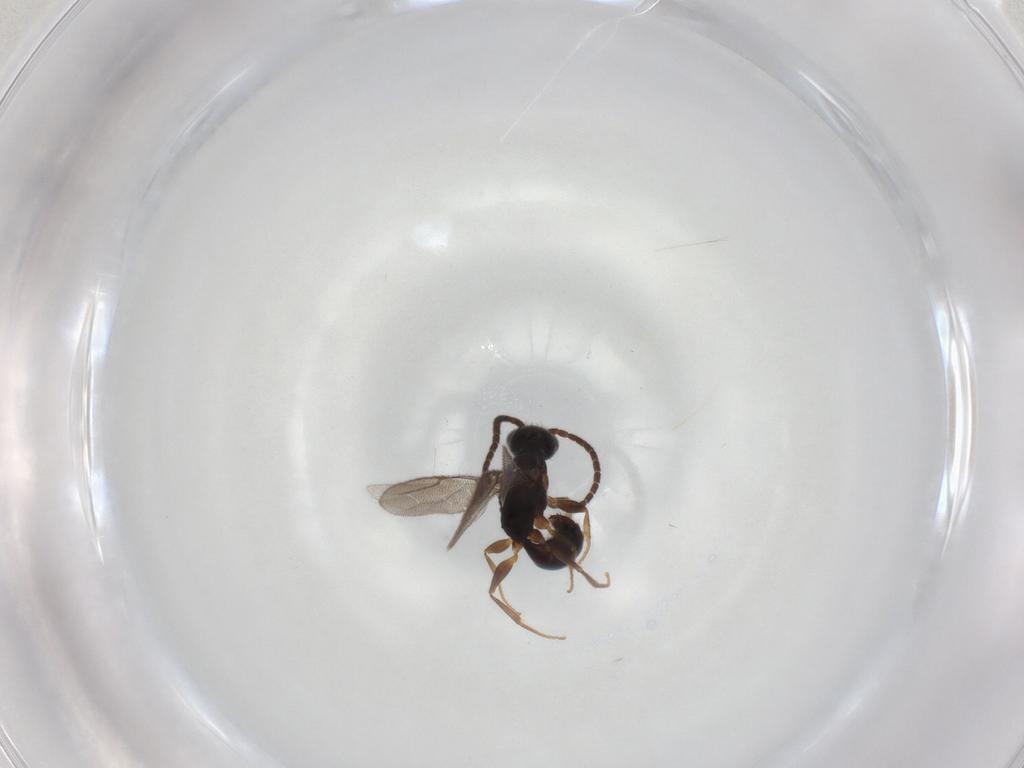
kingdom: Animalia
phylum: Arthropoda
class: Insecta
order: Hymenoptera
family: Bethylidae
